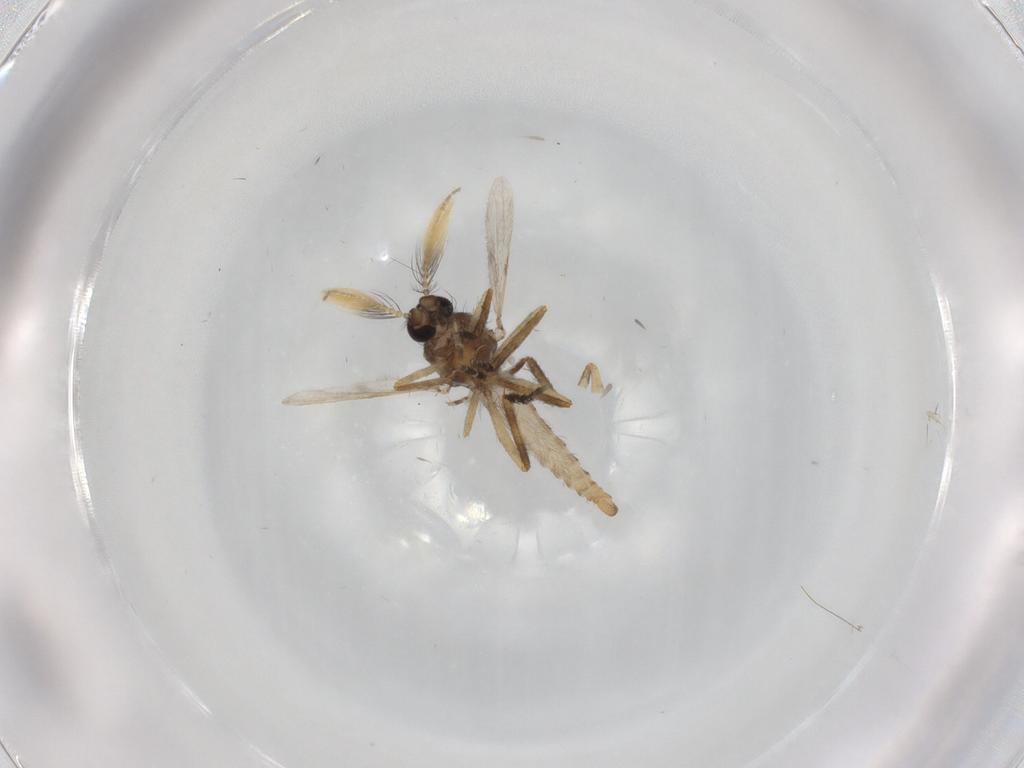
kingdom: Animalia
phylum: Arthropoda
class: Insecta
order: Diptera
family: Ceratopogonidae
